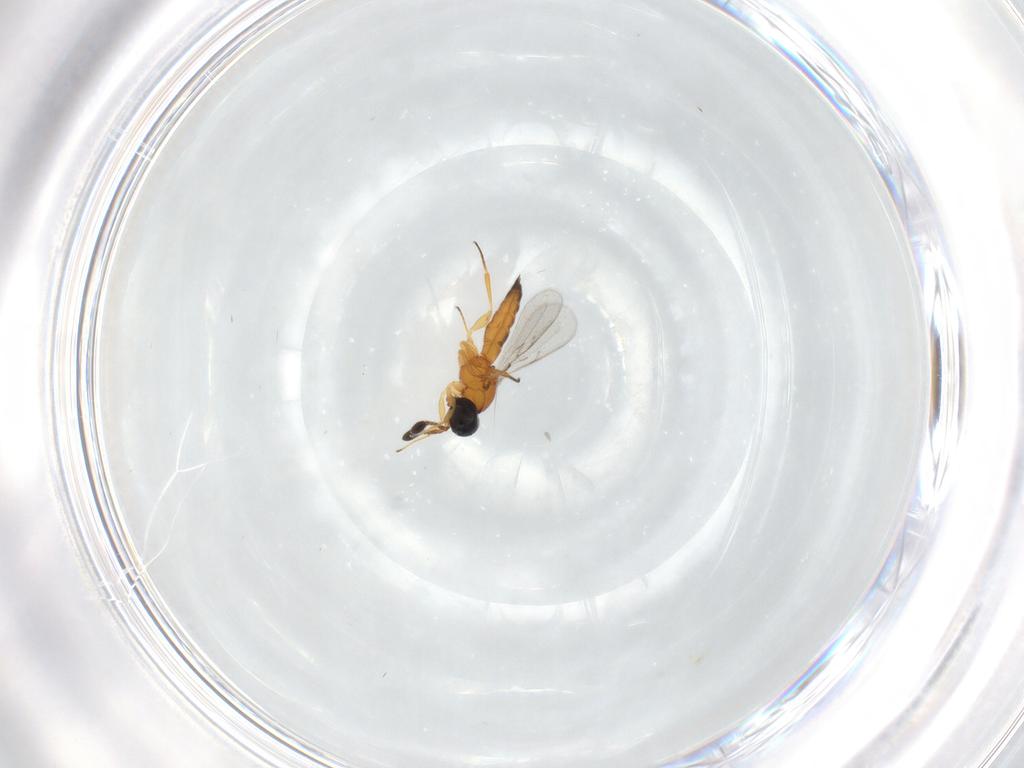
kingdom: Animalia
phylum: Arthropoda
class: Insecta
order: Hymenoptera
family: Scelionidae
